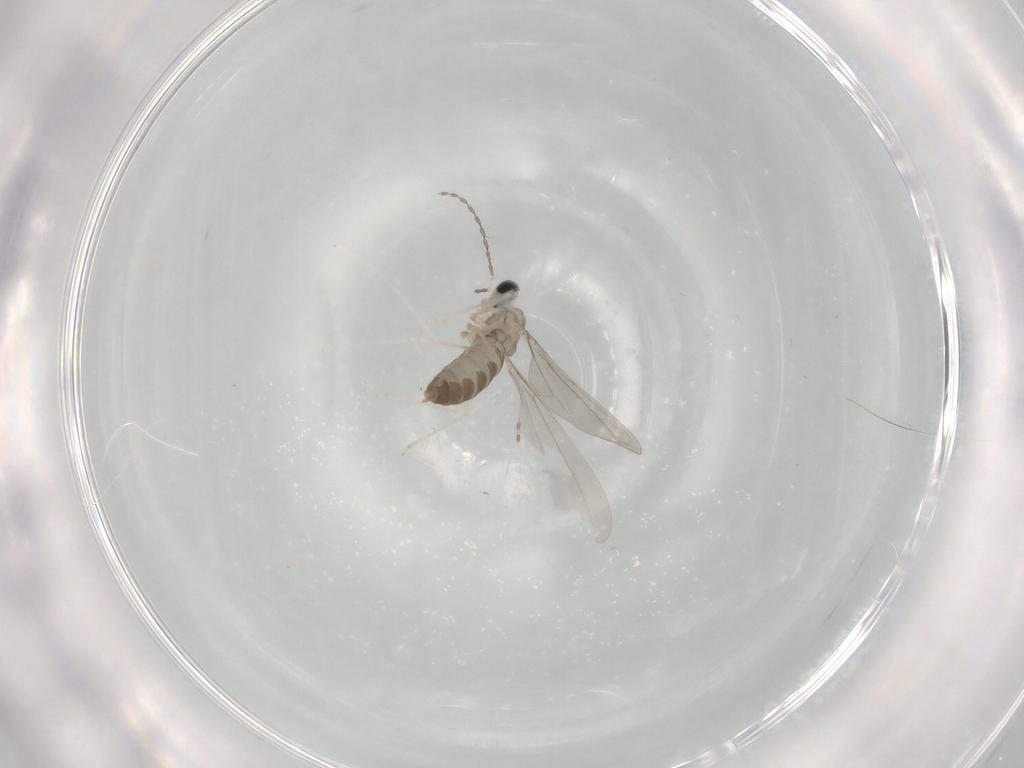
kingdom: Animalia
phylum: Arthropoda
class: Insecta
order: Diptera
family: Cecidomyiidae
